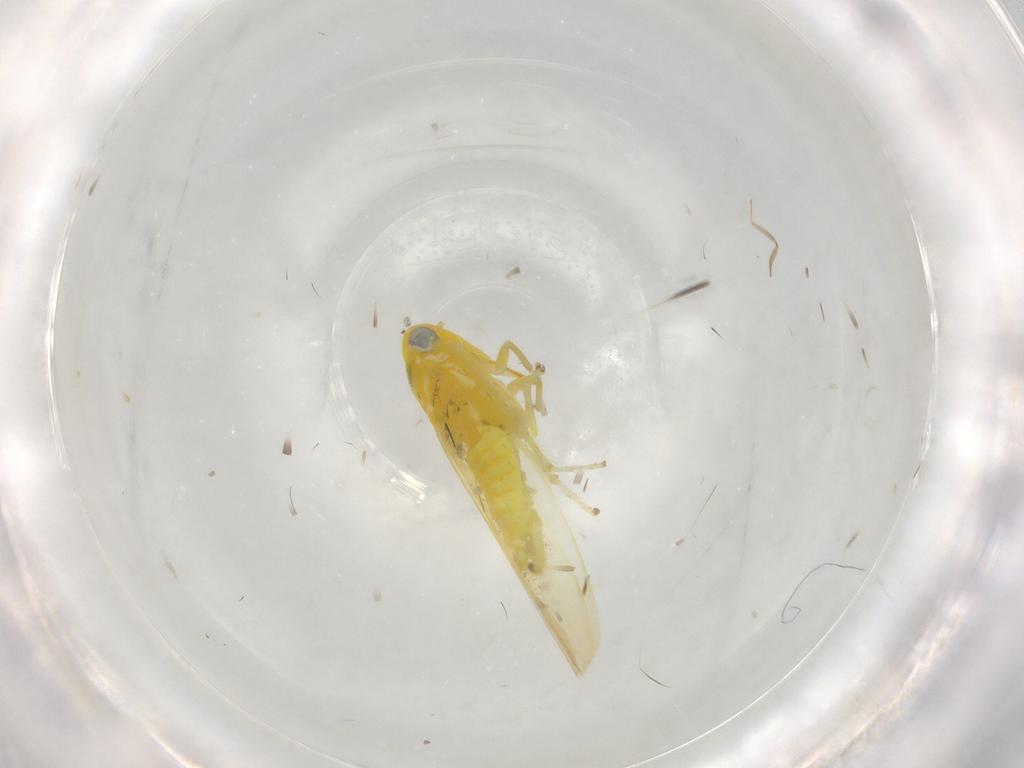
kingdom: Animalia
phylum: Arthropoda
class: Insecta
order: Hemiptera
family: Cicadellidae
